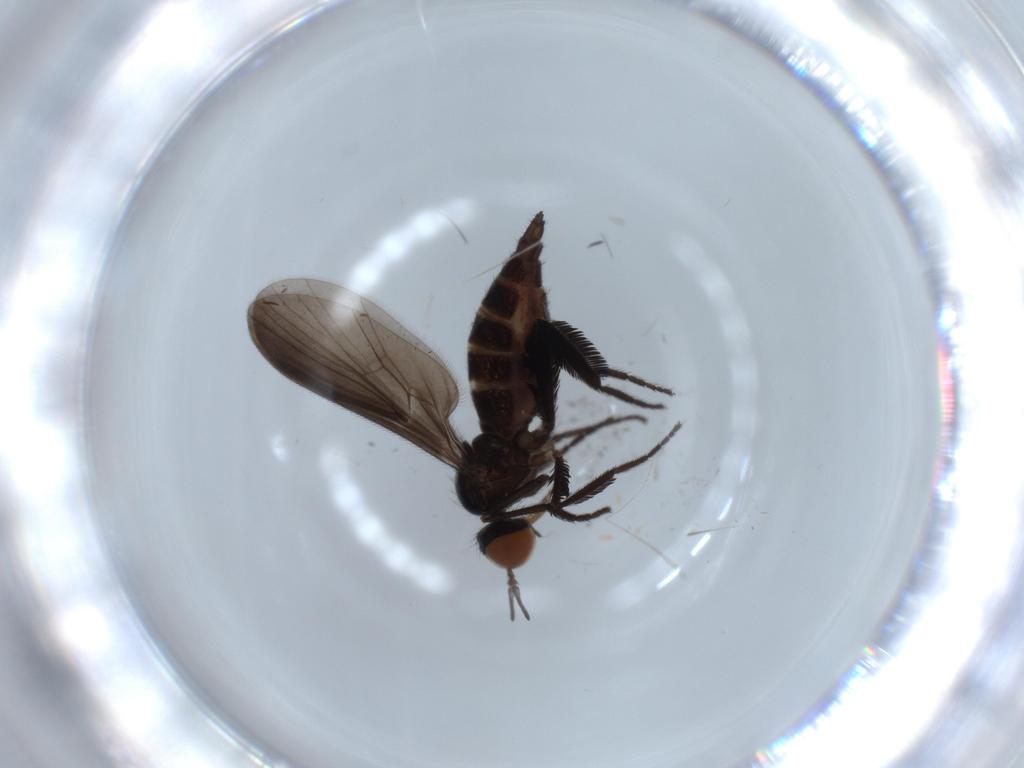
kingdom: Animalia
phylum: Arthropoda
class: Insecta
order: Diptera
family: Empididae
